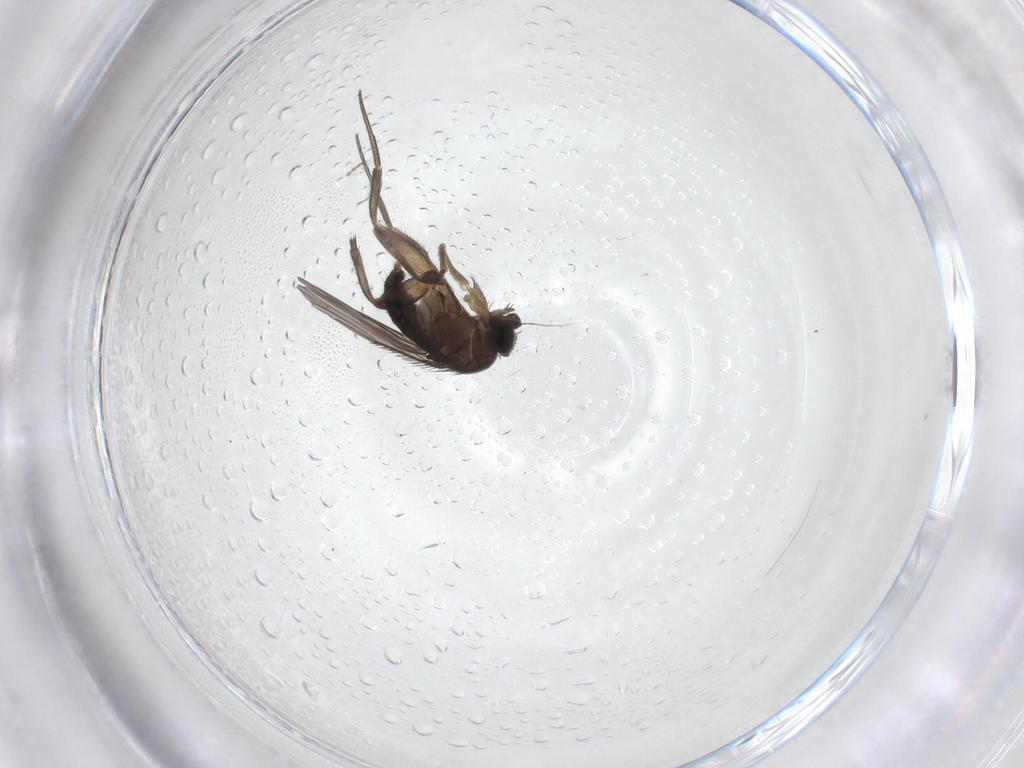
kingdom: Animalia
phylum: Arthropoda
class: Insecta
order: Diptera
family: Phoridae
